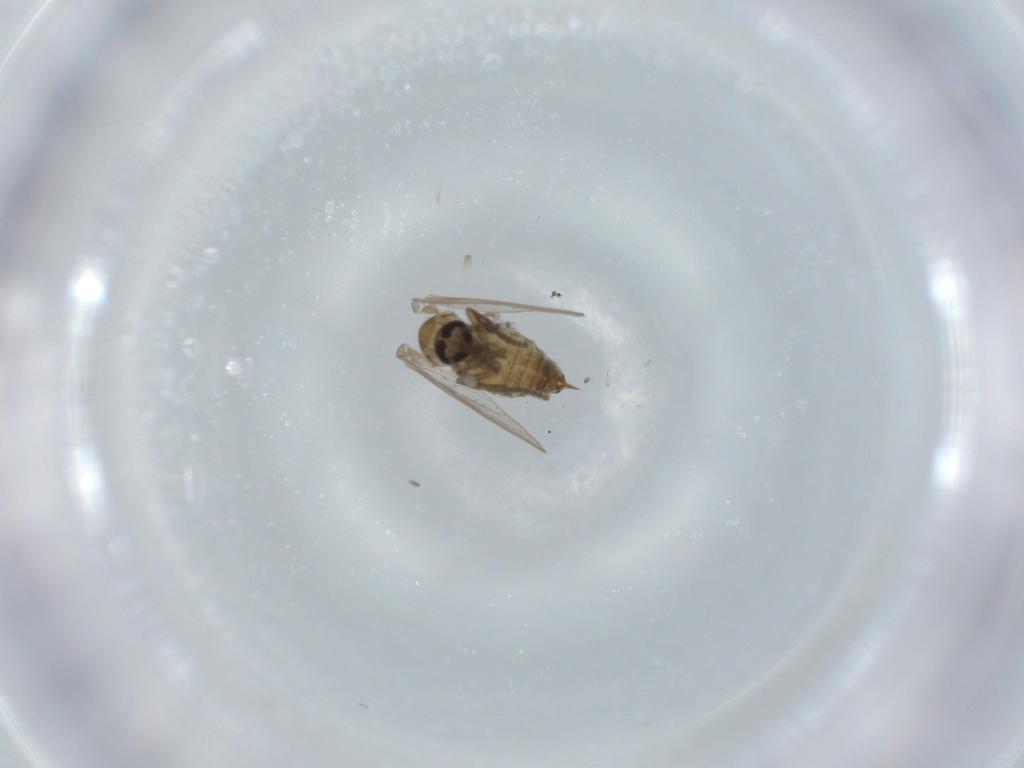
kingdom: Animalia
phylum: Arthropoda
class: Insecta
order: Diptera
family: Psychodidae
